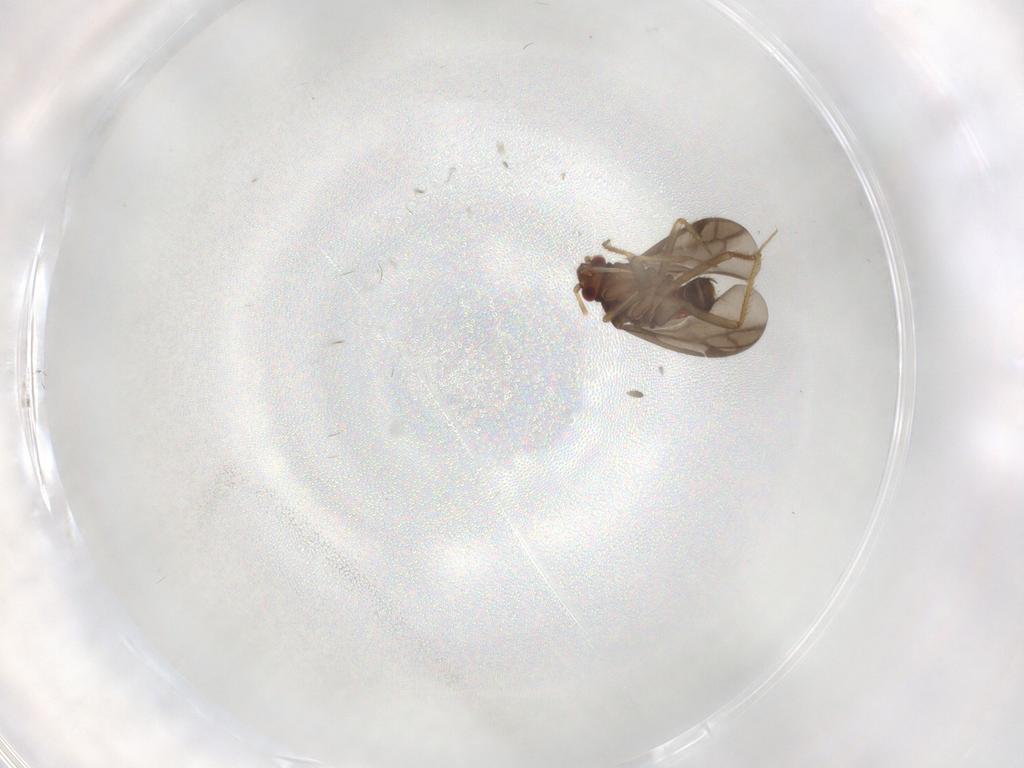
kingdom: Animalia
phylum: Arthropoda
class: Insecta
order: Hemiptera
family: Ceratocombidae
